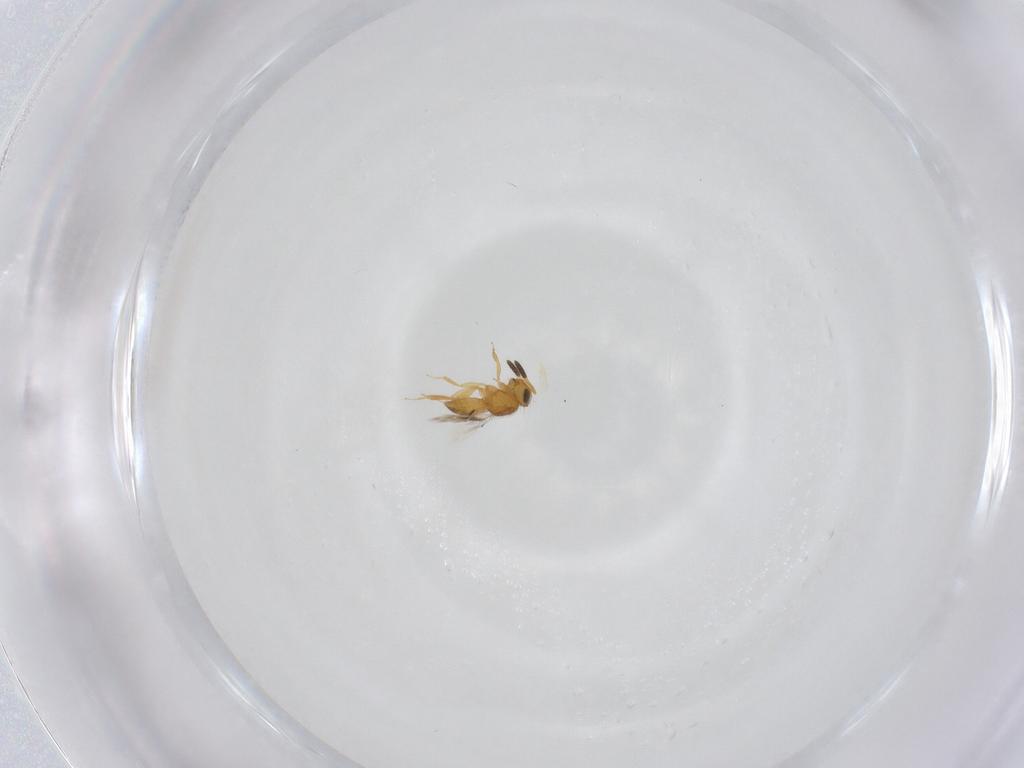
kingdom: Animalia
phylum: Arthropoda
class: Insecta
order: Hymenoptera
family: Scelionidae
